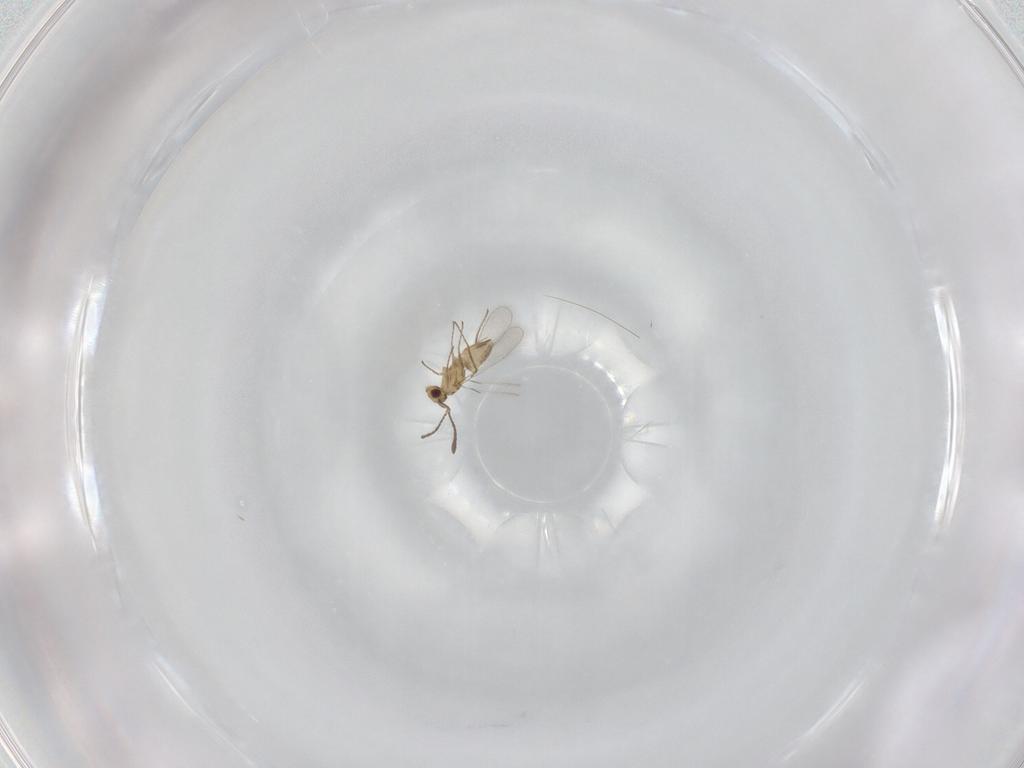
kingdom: Animalia
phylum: Arthropoda
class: Insecta
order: Hymenoptera
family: Mymaridae
